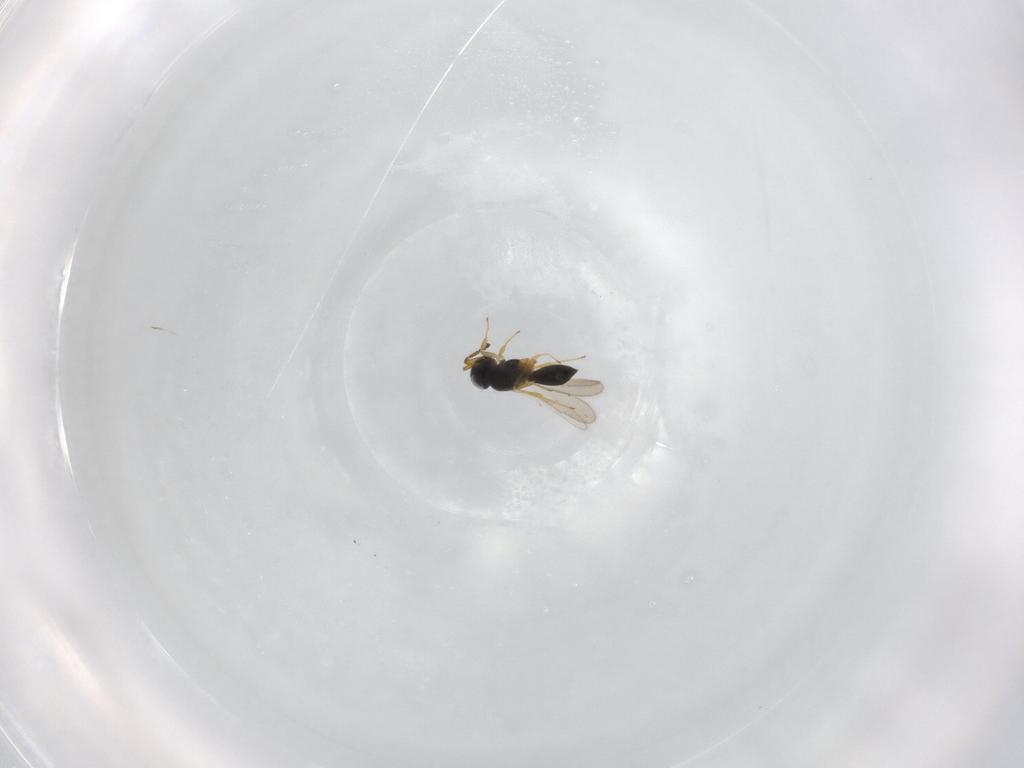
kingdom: Animalia
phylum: Arthropoda
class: Insecta
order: Hymenoptera
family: Scelionidae
